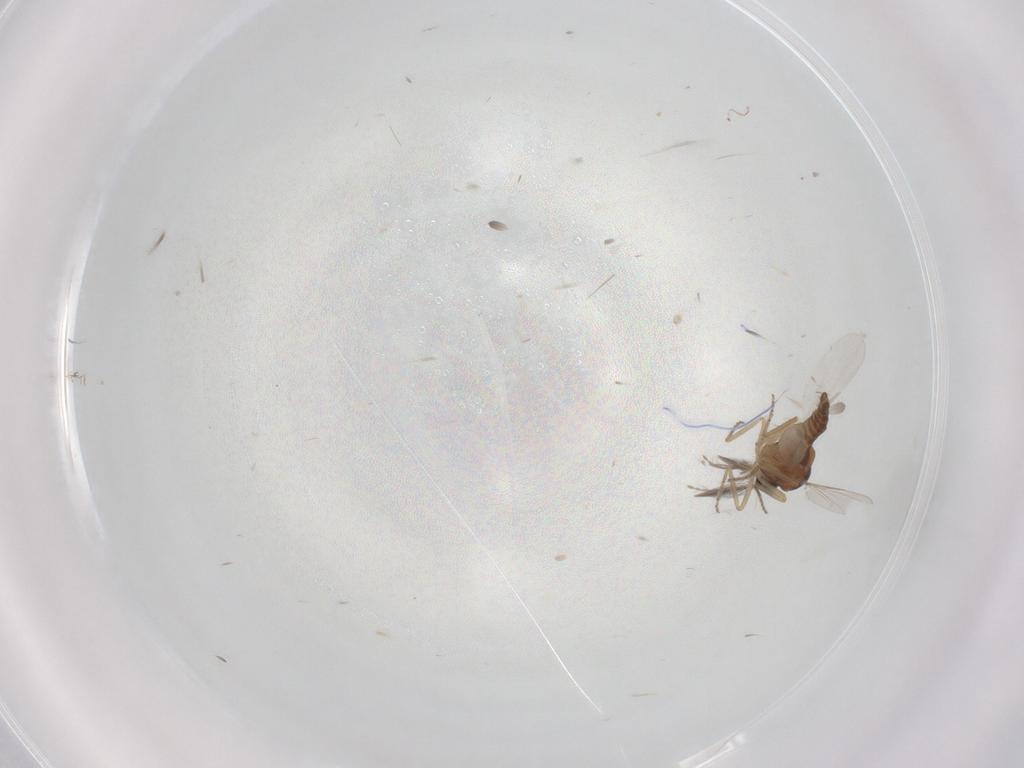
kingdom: Animalia
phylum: Arthropoda
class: Insecta
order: Diptera
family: Ceratopogonidae
